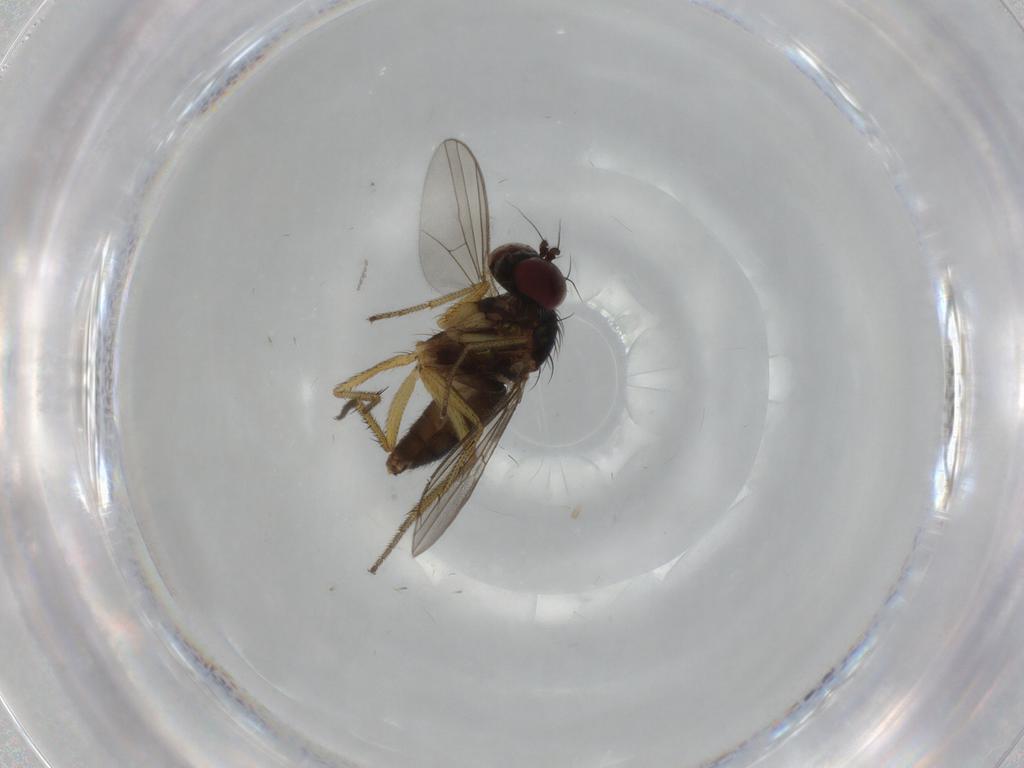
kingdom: Animalia
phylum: Arthropoda
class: Insecta
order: Diptera
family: Dolichopodidae
